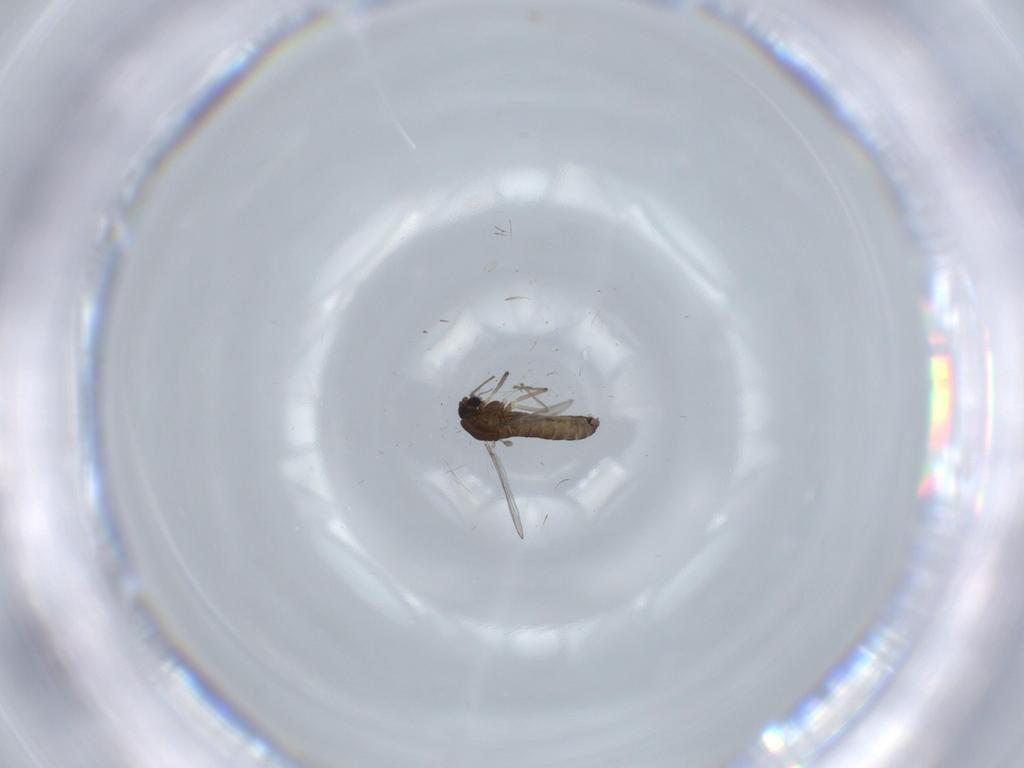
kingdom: Animalia
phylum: Arthropoda
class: Insecta
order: Diptera
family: Chironomidae
